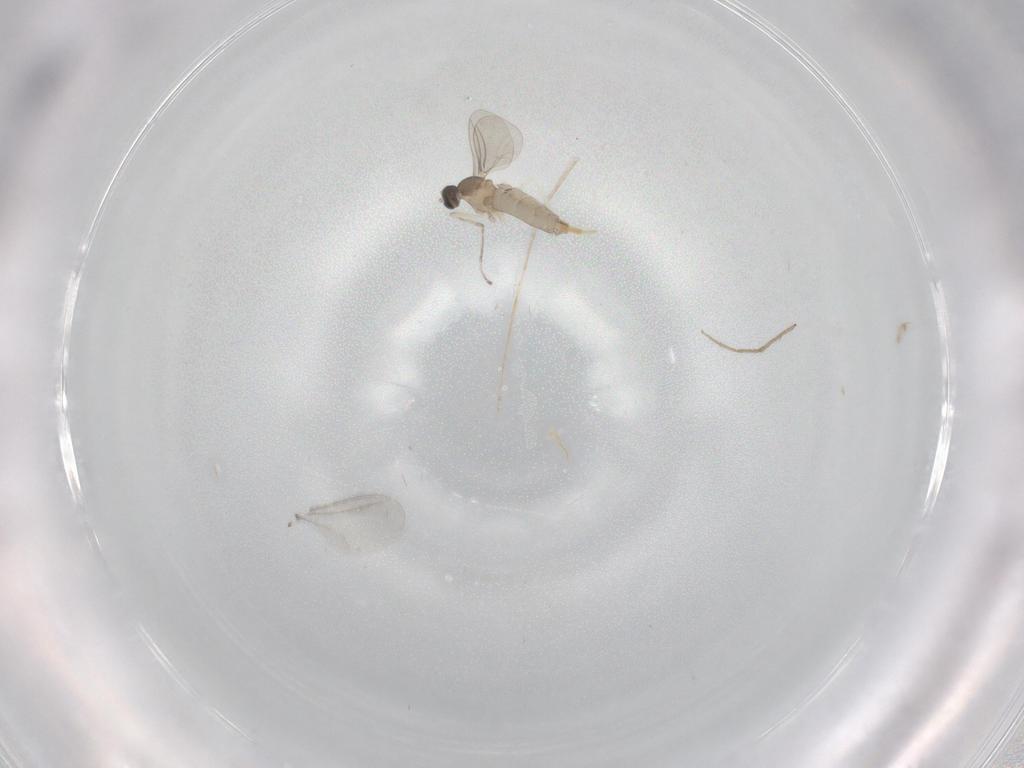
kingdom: Animalia
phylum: Arthropoda
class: Insecta
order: Diptera
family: Cecidomyiidae
